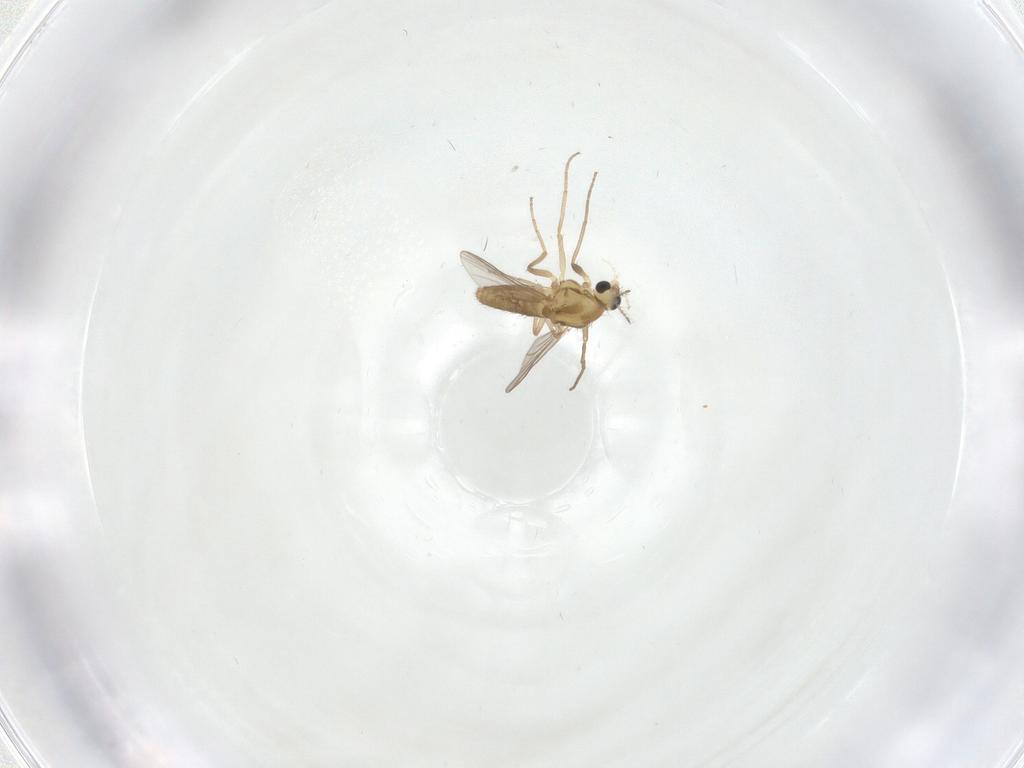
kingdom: Animalia
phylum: Arthropoda
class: Insecta
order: Diptera
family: Chironomidae
